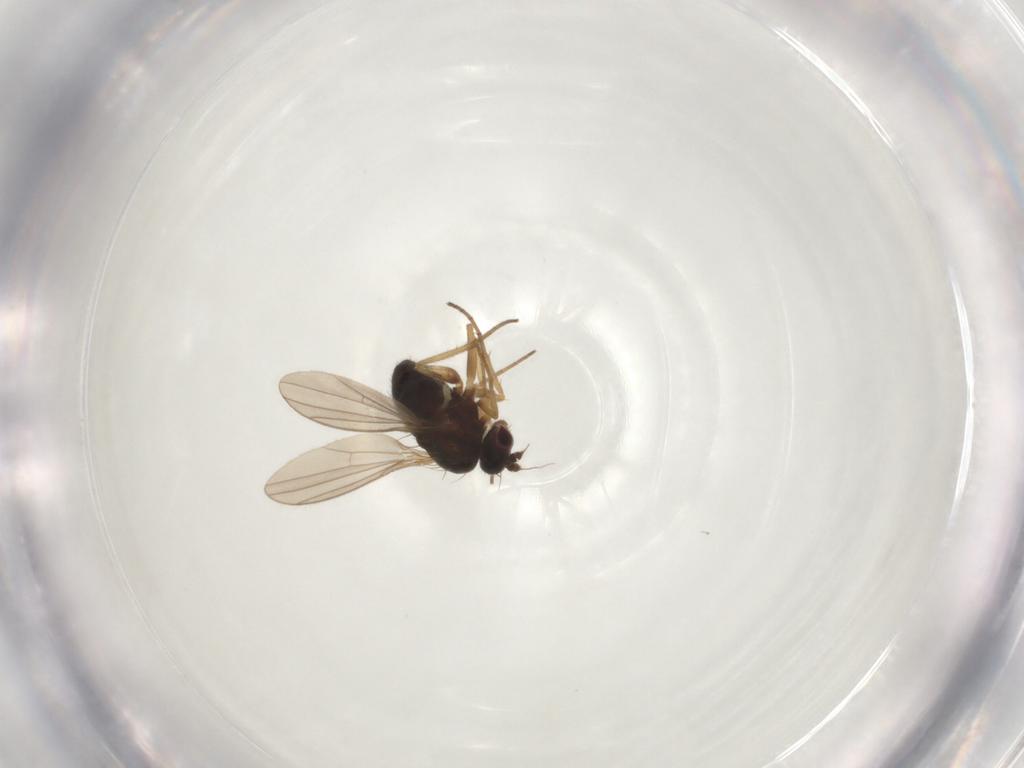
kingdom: Animalia
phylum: Arthropoda
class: Insecta
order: Diptera
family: Dolichopodidae
